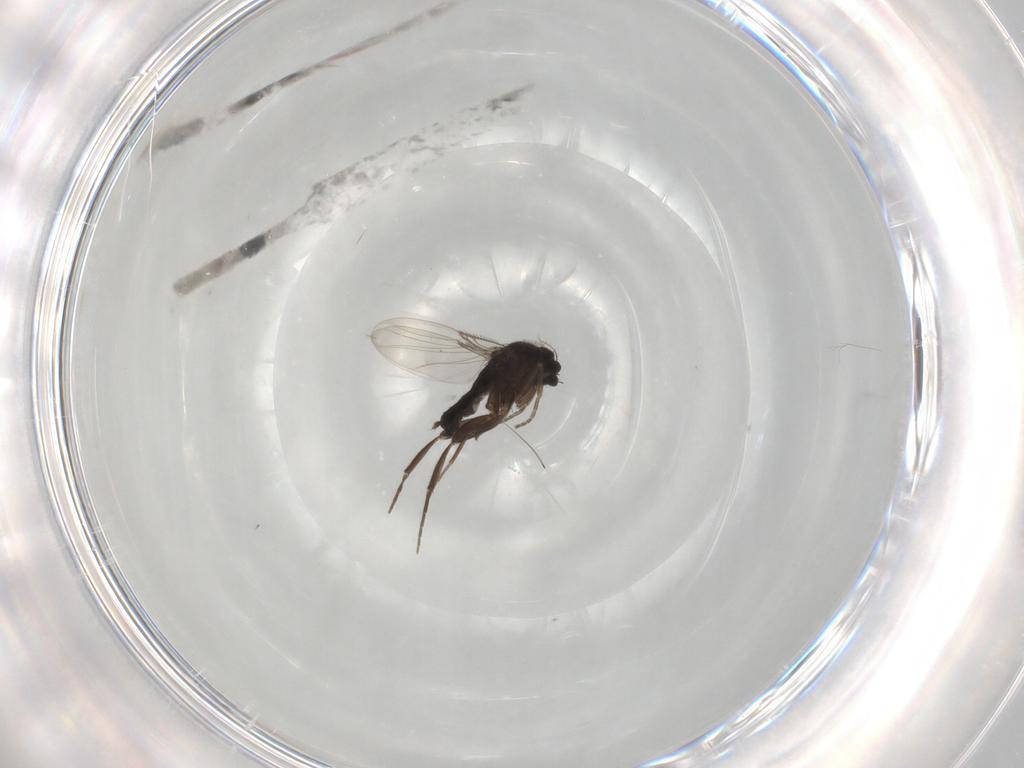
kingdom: Animalia
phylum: Arthropoda
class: Insecta
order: Diptera
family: Phoridae
